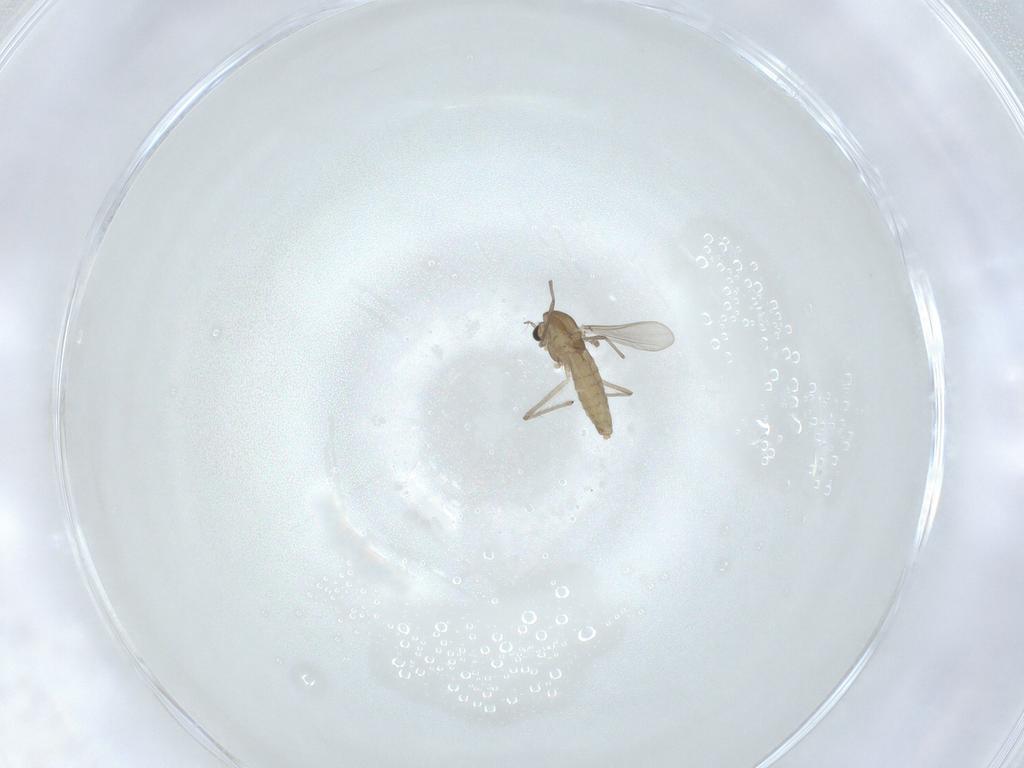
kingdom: Animalia
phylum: Arthropoda
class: Insecta
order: Diptera
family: Chironomidae
